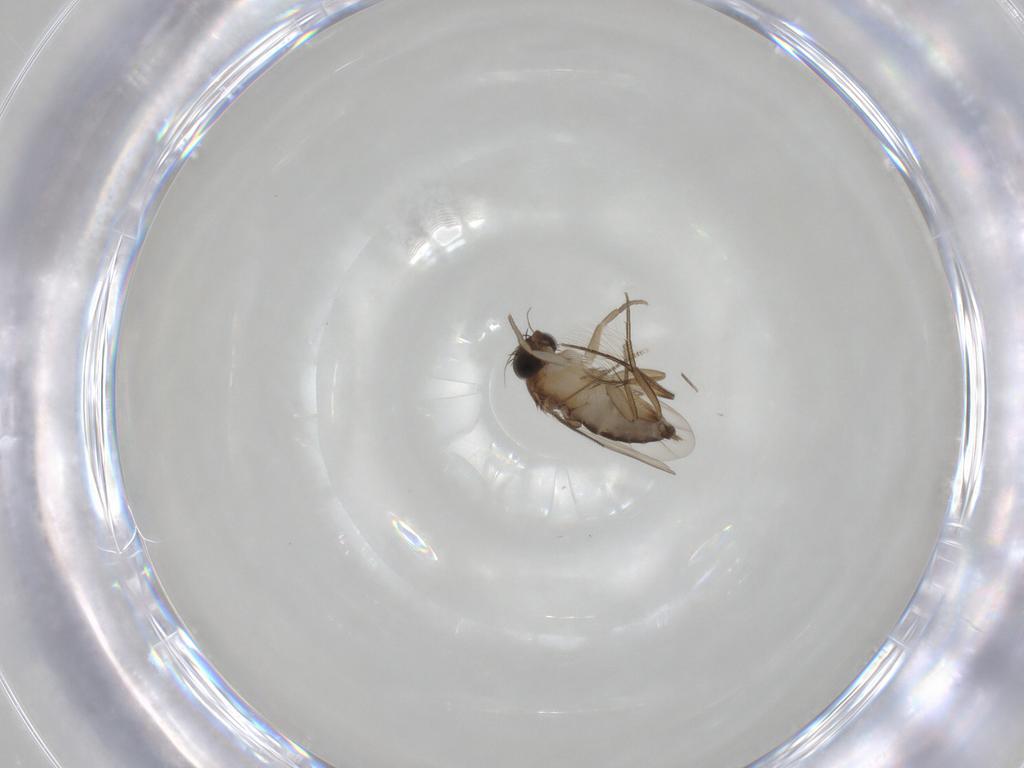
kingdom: Animalia
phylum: Arthropoda
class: Insecta
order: Diptera
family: Phoridae
